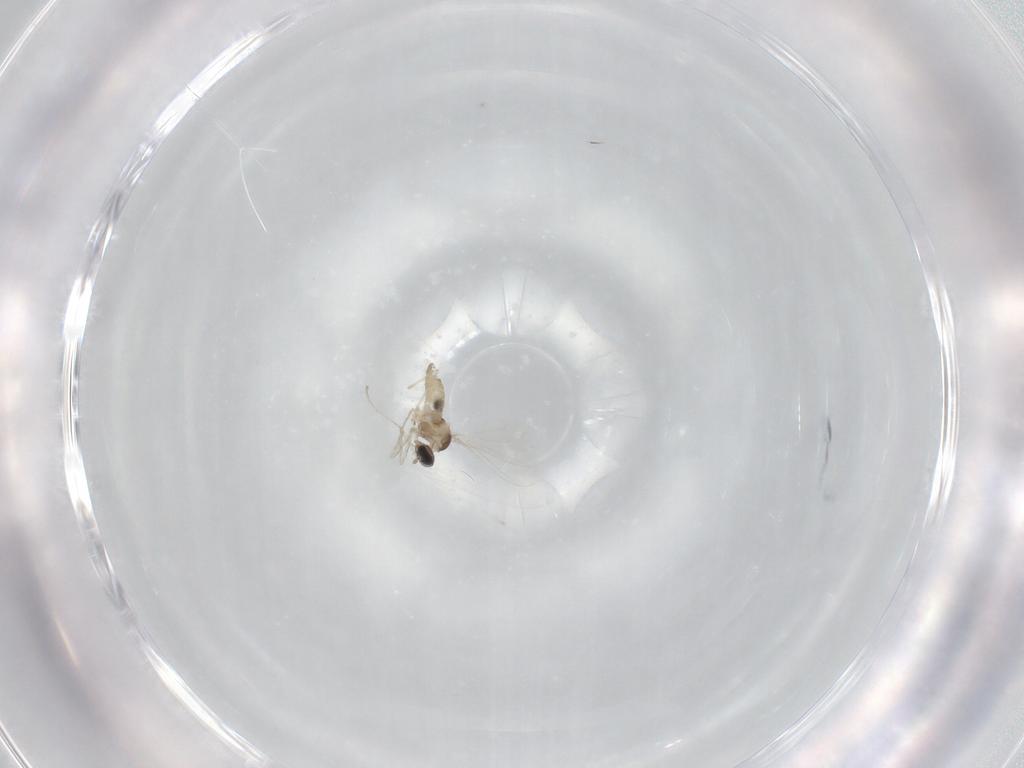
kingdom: Animalia
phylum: Arthropoda
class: Insecta
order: Diptera
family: Cecidomyiidae
